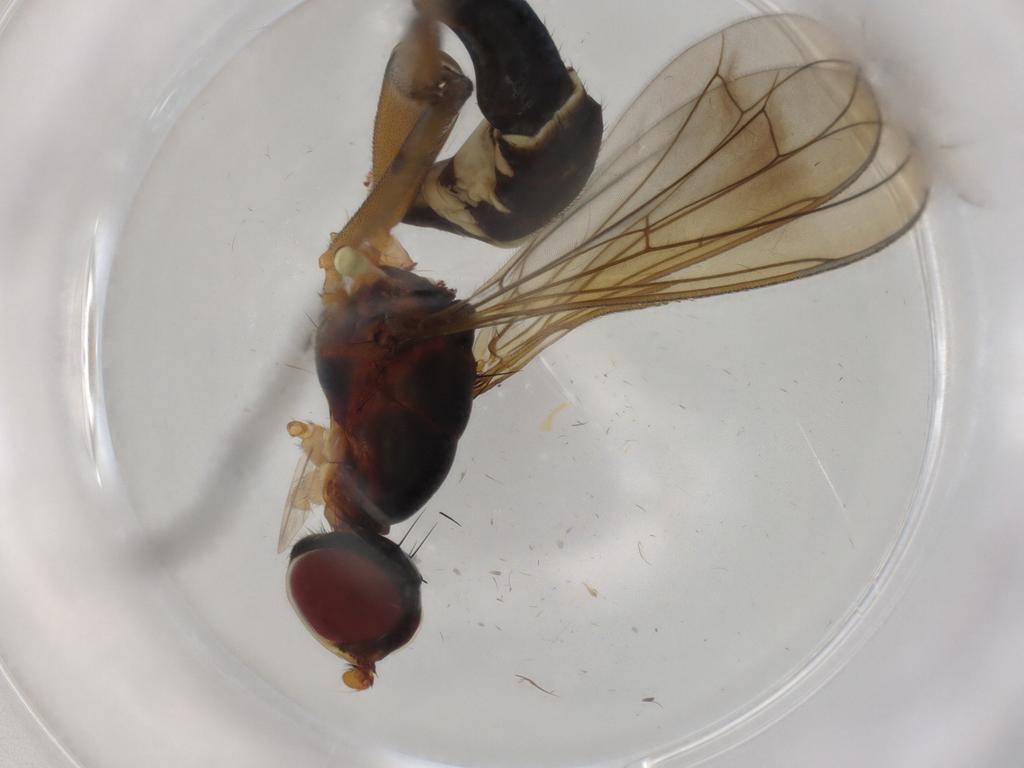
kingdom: Animalia
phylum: Arthropoda
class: Insecta
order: Diptera
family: Cecidomyiidae
